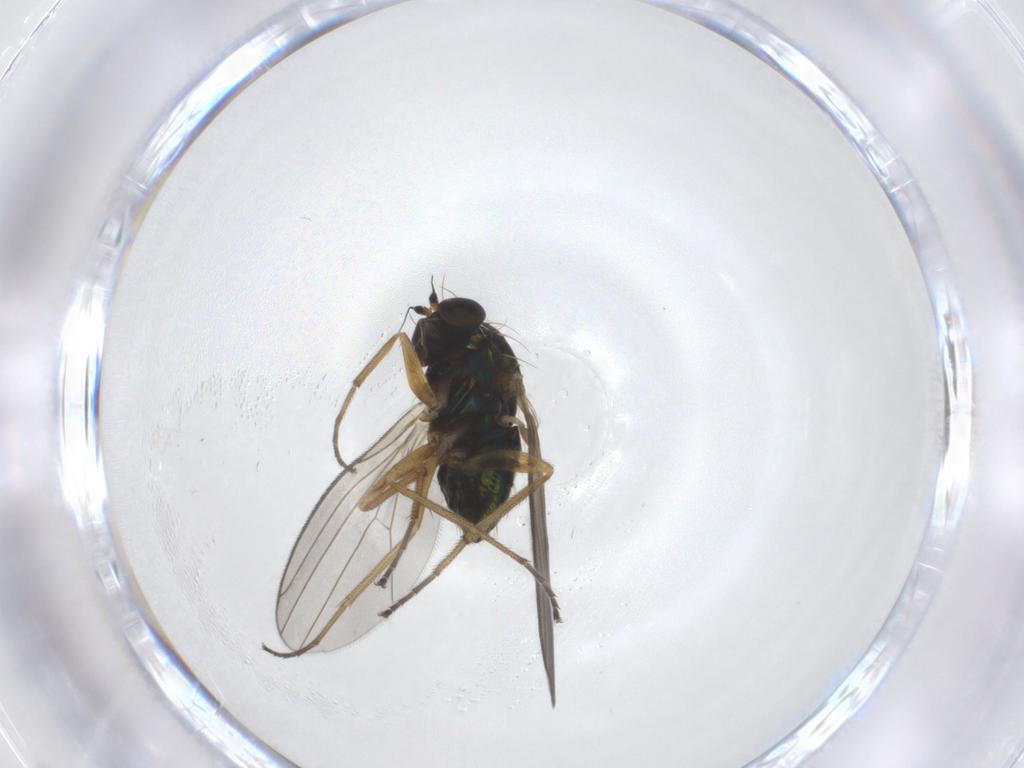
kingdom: Animalia
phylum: Arthropoda
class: Insecta
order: Diptera
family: Dolichopodidae
